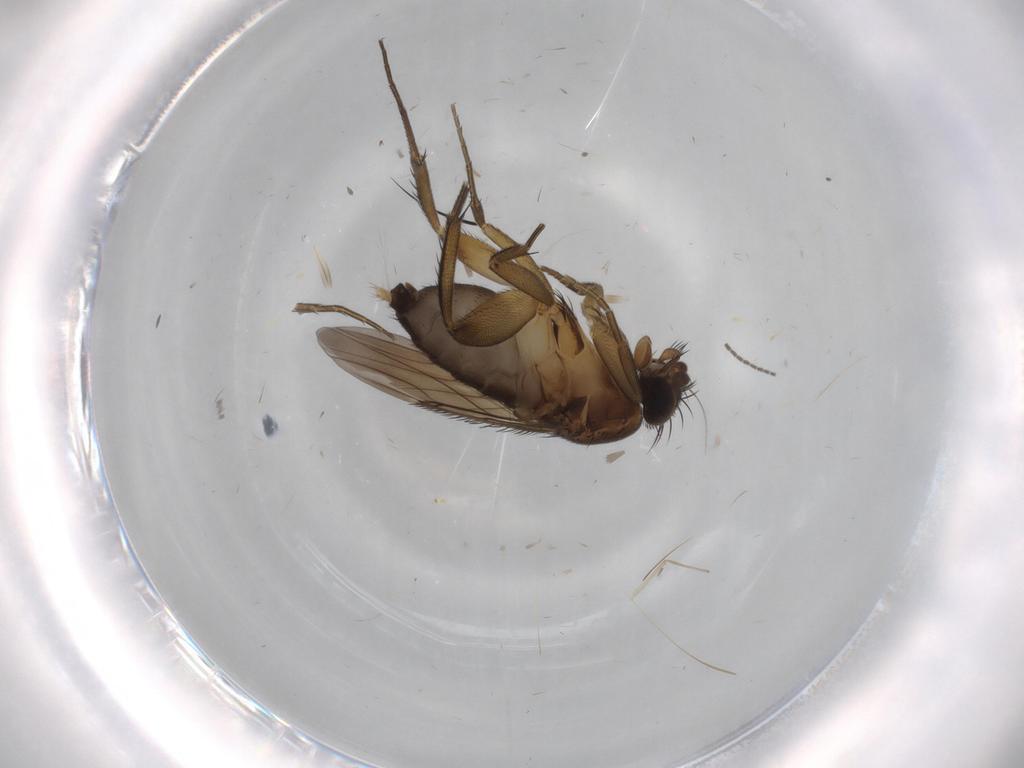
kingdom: Animalia
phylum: Arthropoda
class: Insecta
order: Diptera
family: Phoridae
